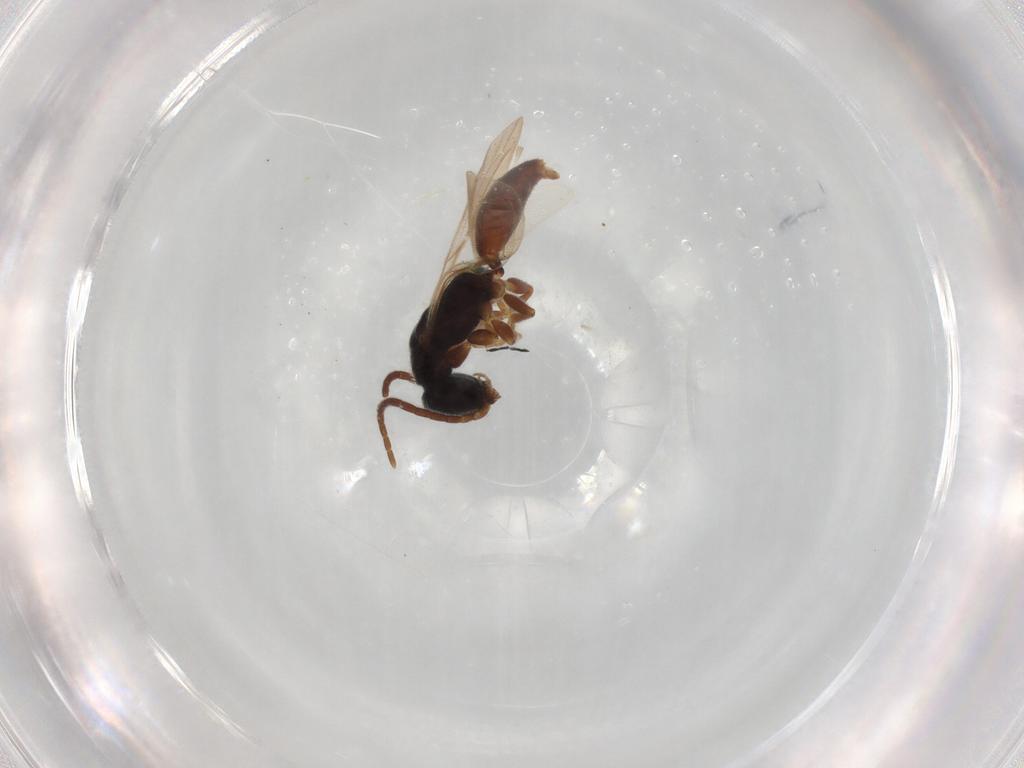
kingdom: Animalia
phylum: Arthropoda
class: Insecta
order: Hymenoptera
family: Bethylidae
